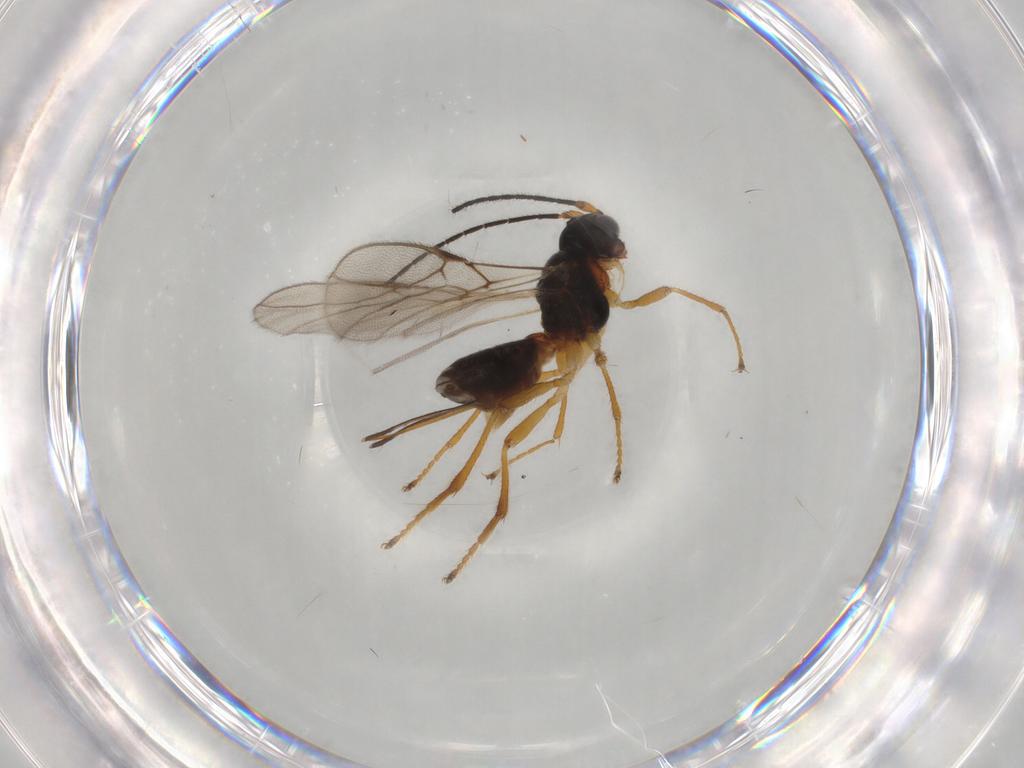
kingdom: Animalia
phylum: Arthropoda
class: Insecta
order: Hymenoptera
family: Braconidae
